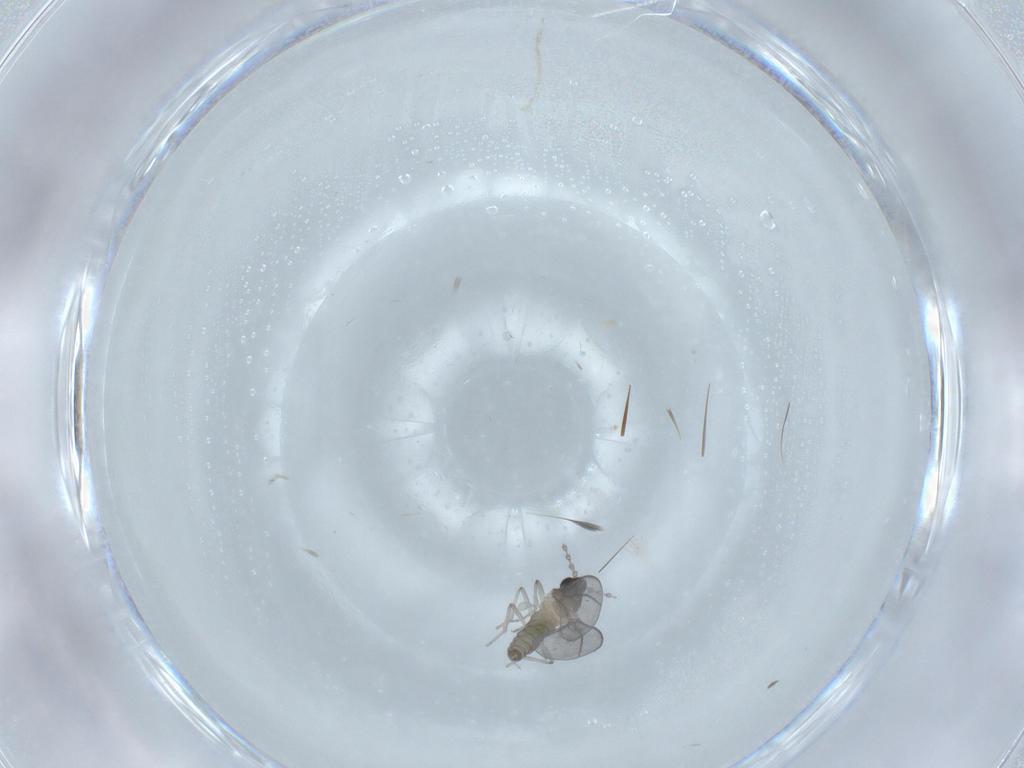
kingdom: Animalia
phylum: Arthropoda
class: Insecta
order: Diptera
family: Cecidomyiidae
